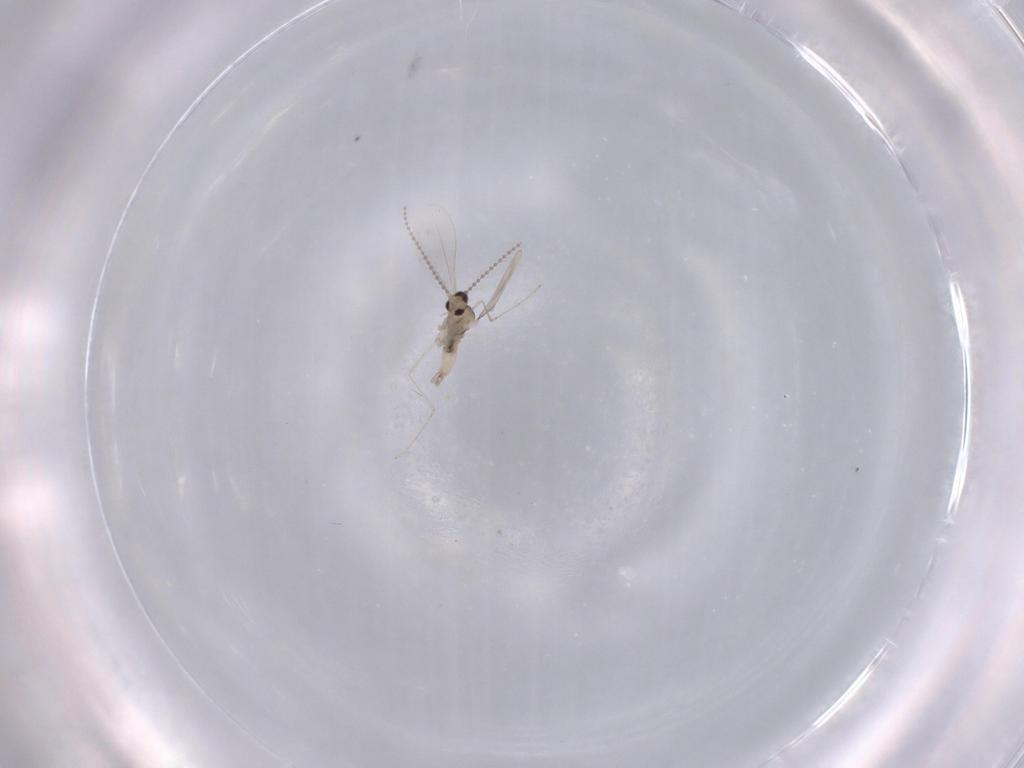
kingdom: Animalia
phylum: Arthropoda
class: Insecta
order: Diptera
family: Cecidomyiidae
